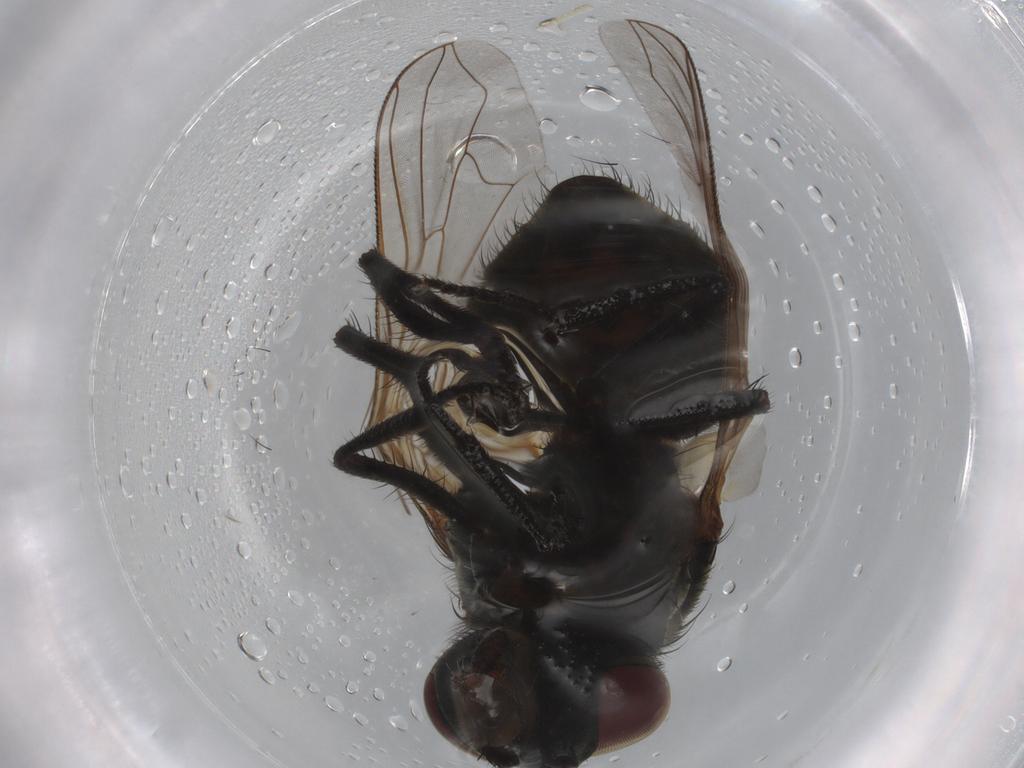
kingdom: Animalia
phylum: Arthropoda
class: Insecta
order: Diptera
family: Muscidae
